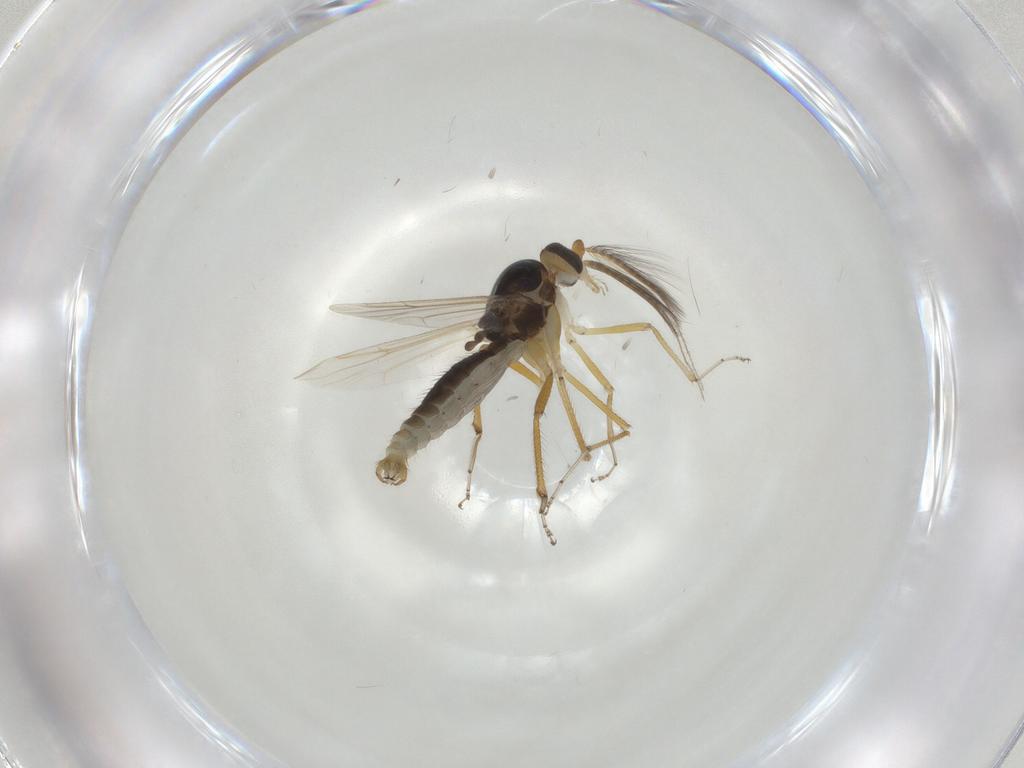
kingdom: Animalia
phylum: Arthropoda
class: Insecta
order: Diptera
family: Ceratopogonidae
